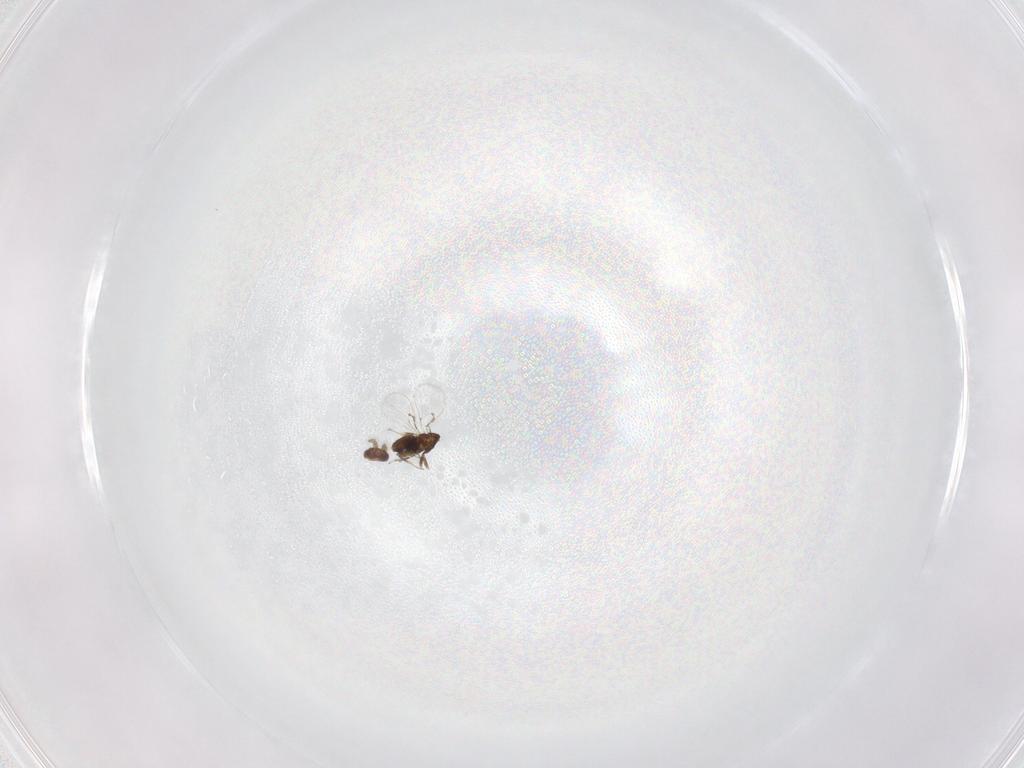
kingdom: Animalia
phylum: Arthropoda
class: Insecta
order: Hymenoptera
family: Trichogrammatidae
